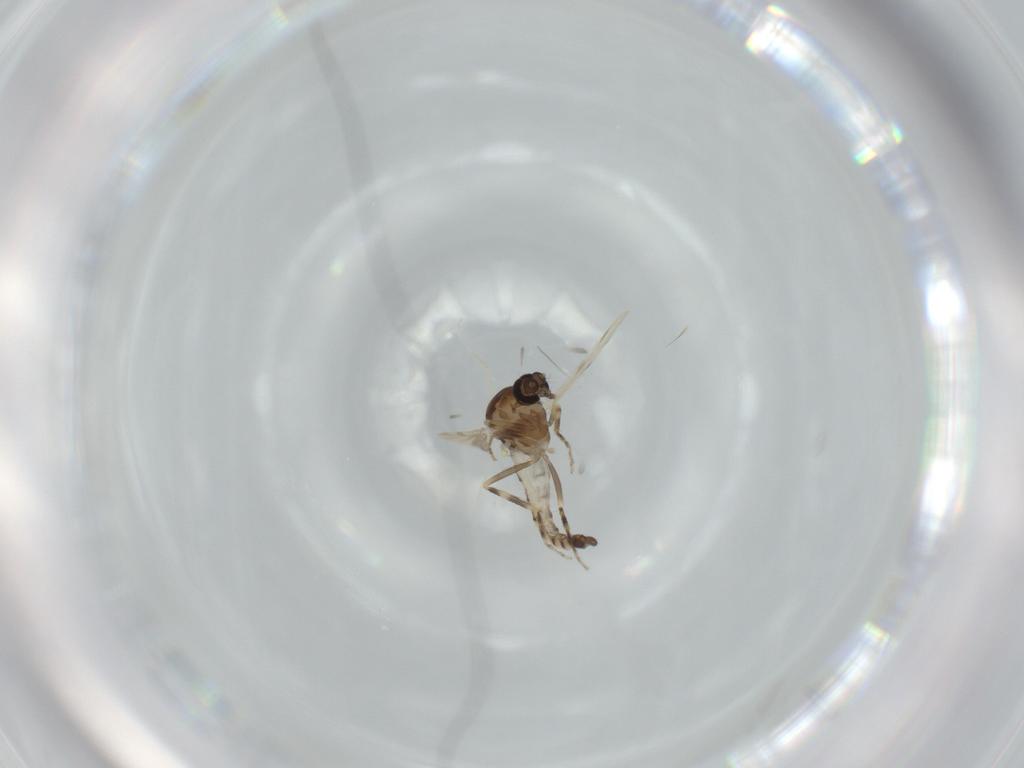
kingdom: Animalia
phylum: Arthropoda
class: Insecta
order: Diptera
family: Ceratopogonidae
